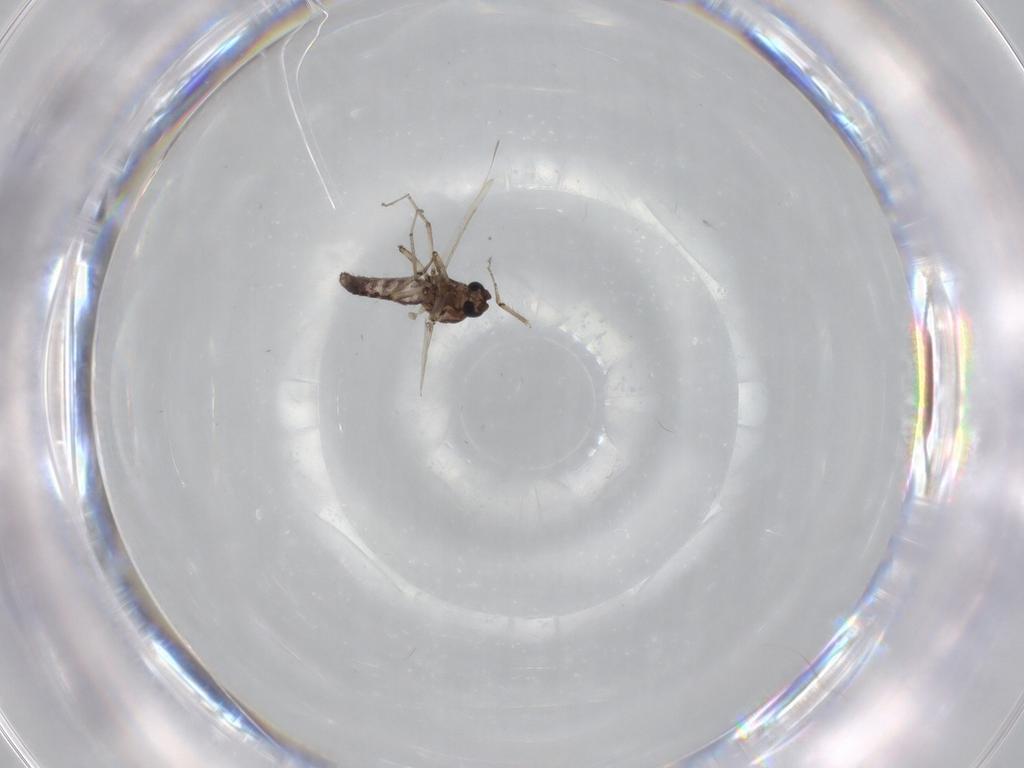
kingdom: Animalia
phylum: Arthropoda
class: Insecta
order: Diptera
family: Ceratopogonidae
